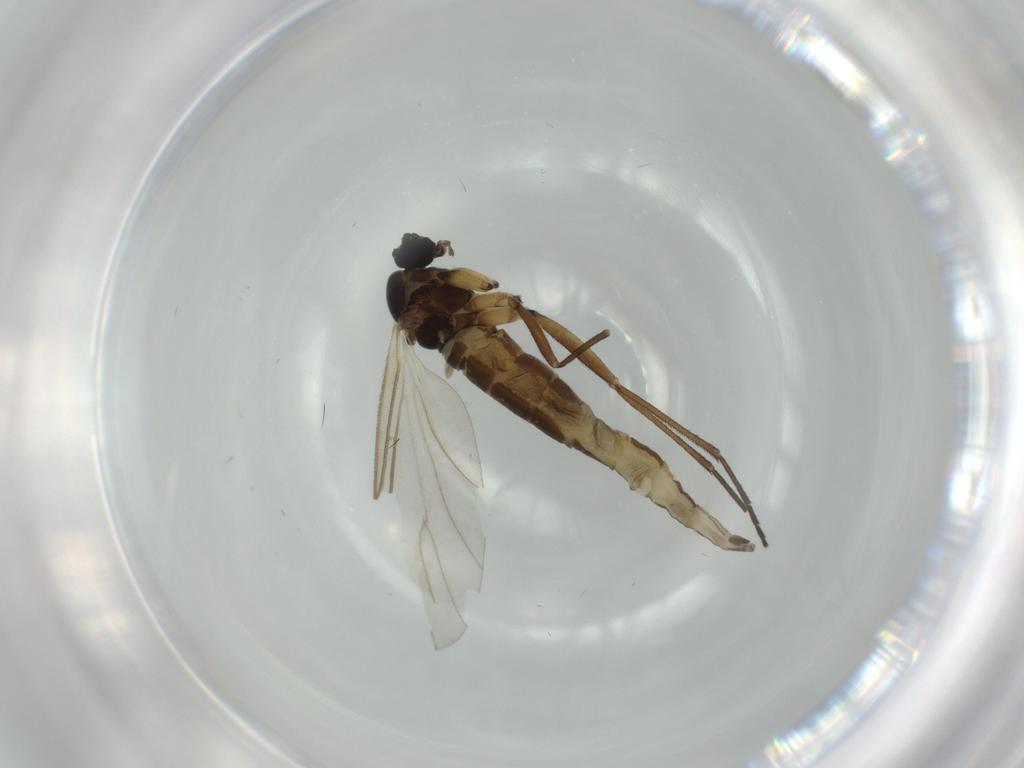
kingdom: Animalia
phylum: Arthropoda
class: Insecta
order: Diptera
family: Sciaridae
